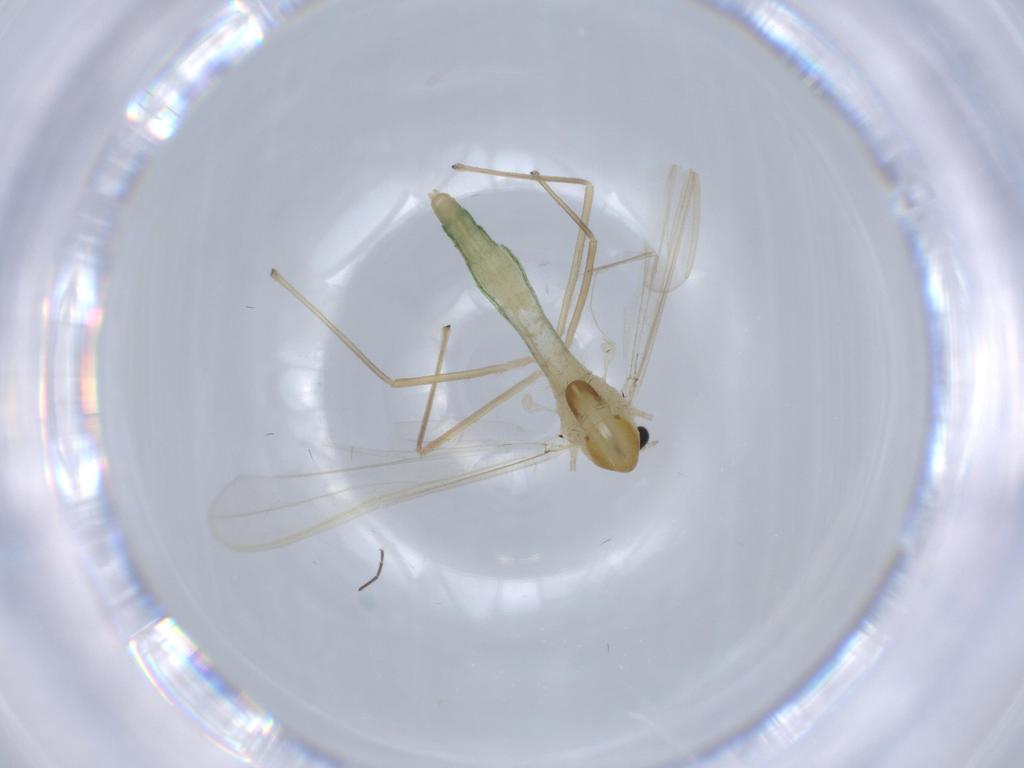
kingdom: Animalia
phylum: Arthropoda
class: Insecta
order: Diptera
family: Chironomidae
